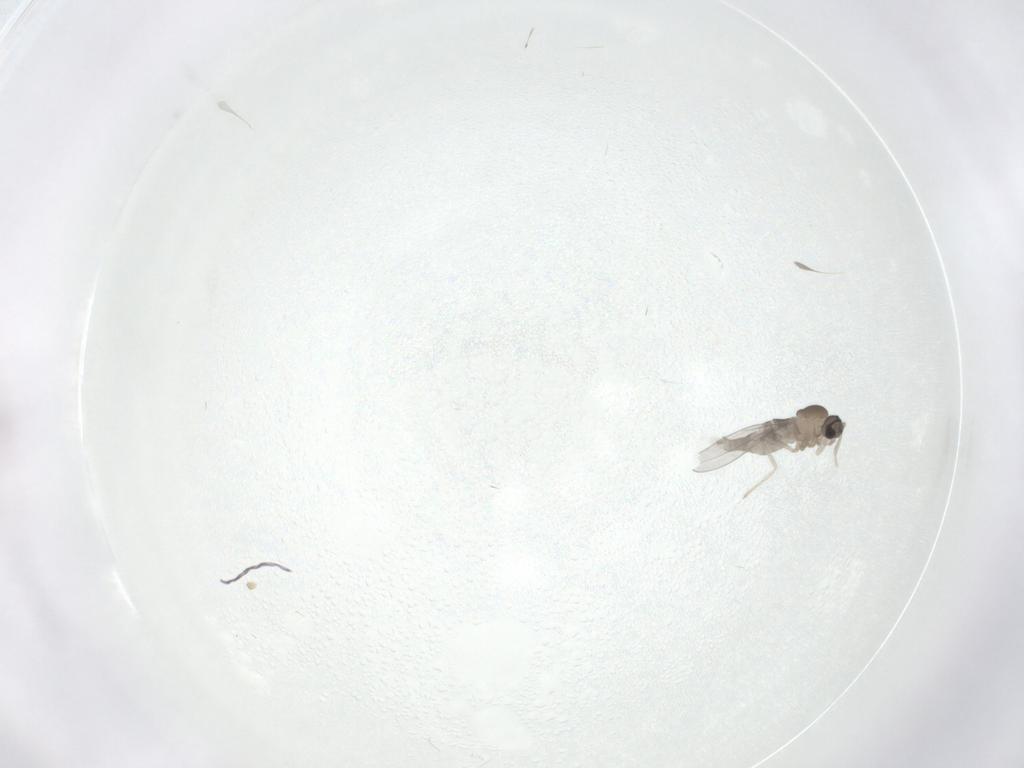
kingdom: Animalia
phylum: Arthropoda
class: Insecta
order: Diptera
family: Cecidomyiidae
